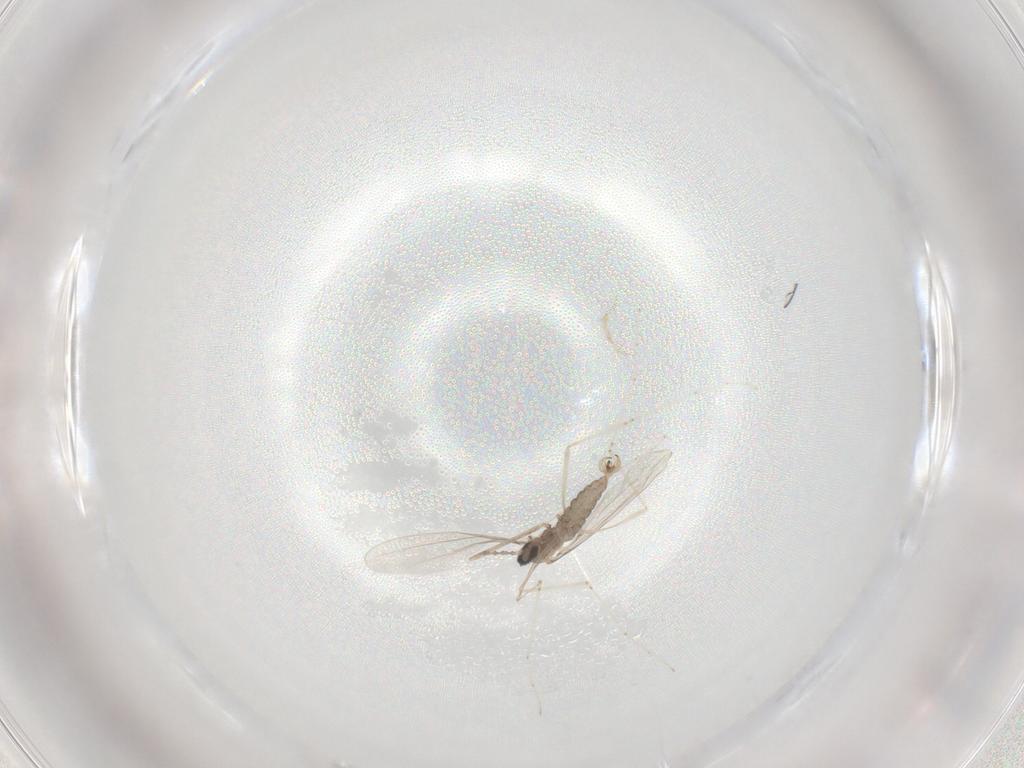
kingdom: Animalia
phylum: Arthropoda
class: Insecta
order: Diptera
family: Cecidomyiidae
